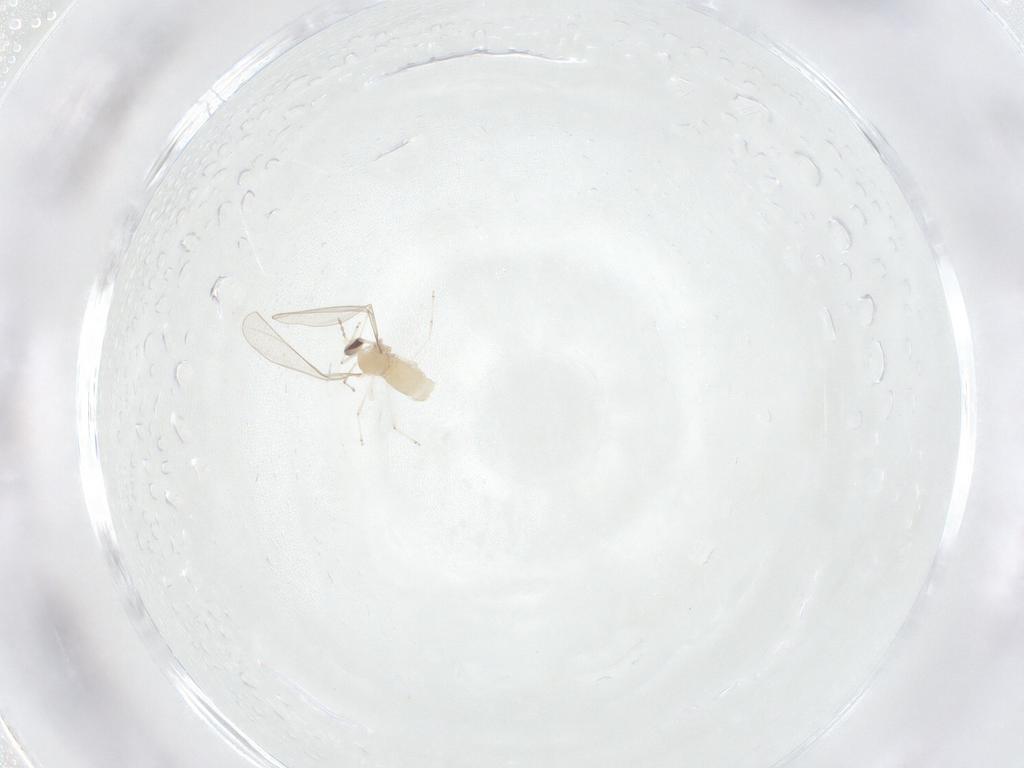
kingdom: Animalia
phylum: Arthropoda
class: Insecta
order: Diptera
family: Cecidomyiidae
